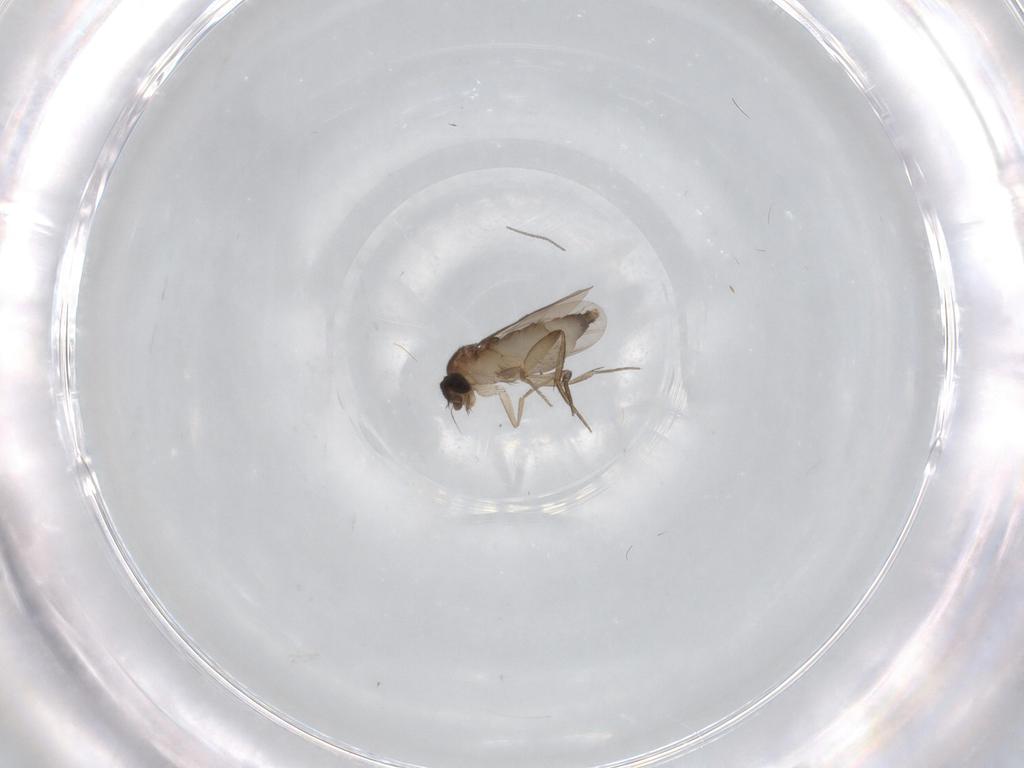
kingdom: Animalia
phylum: Arthropoda
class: Insecta
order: Diptera
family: Phoridae
